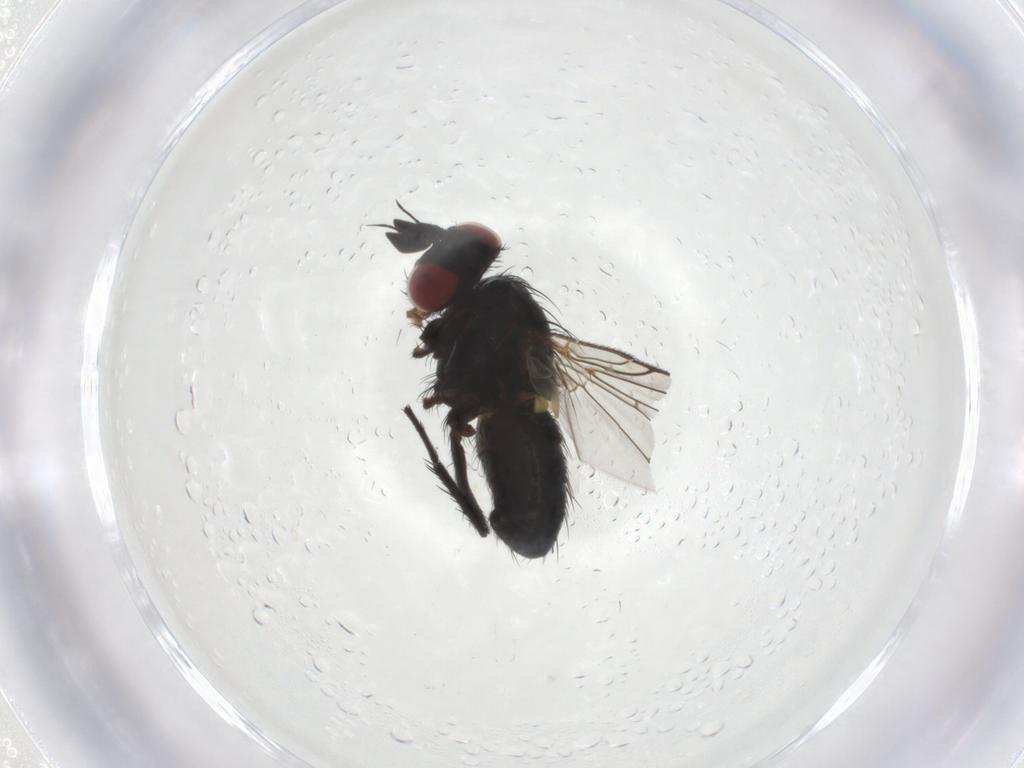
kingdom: Animalia
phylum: Arthropoda
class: Insecta
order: Diptera
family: Tachinidae
